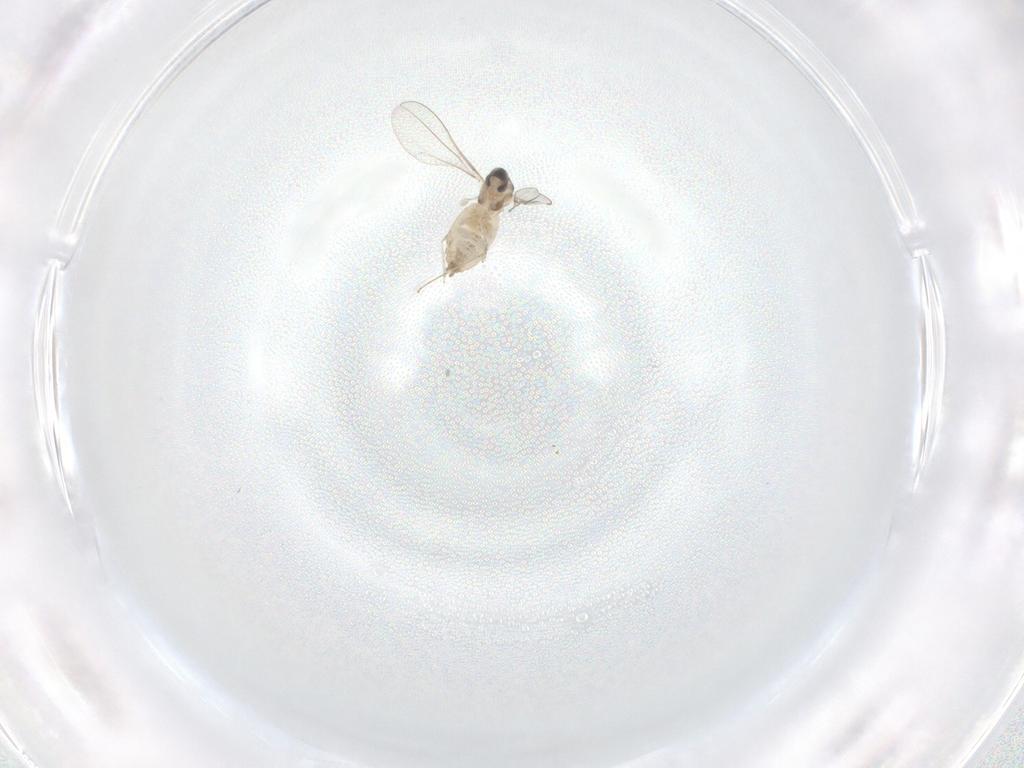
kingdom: Animalia
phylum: Arthropoda
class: Insecta
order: Diptera
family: Cecidomyiidae
